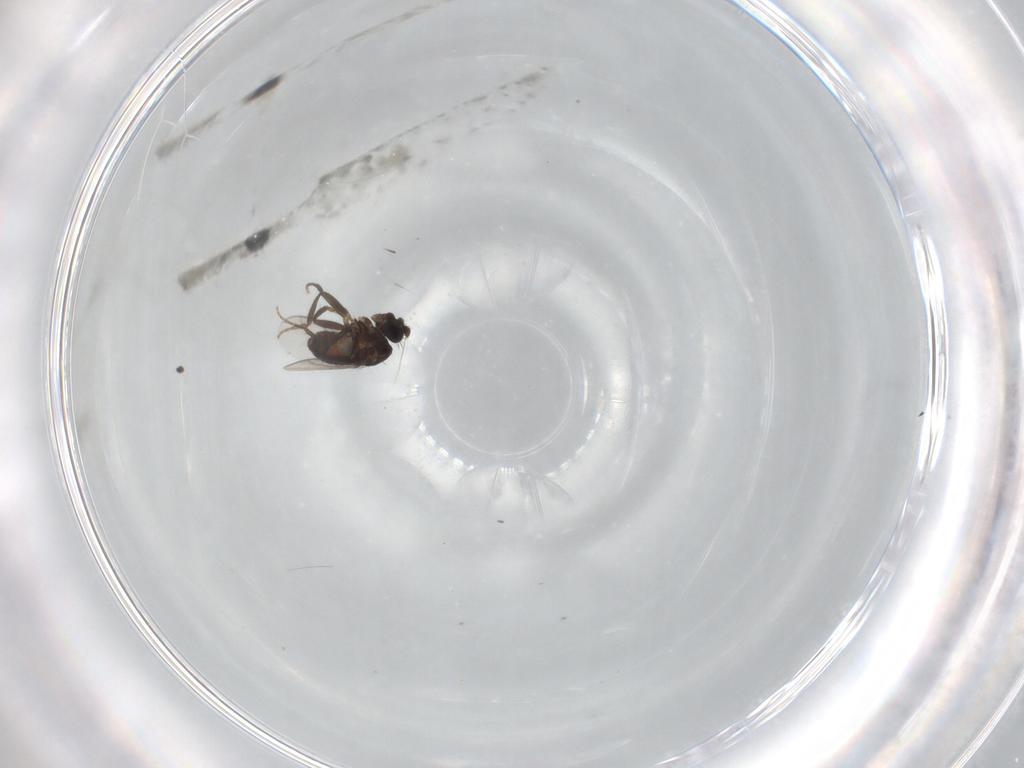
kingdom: Animalia
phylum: Arthropoda
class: Insecta
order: Diptera
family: Sphaeroceridae
